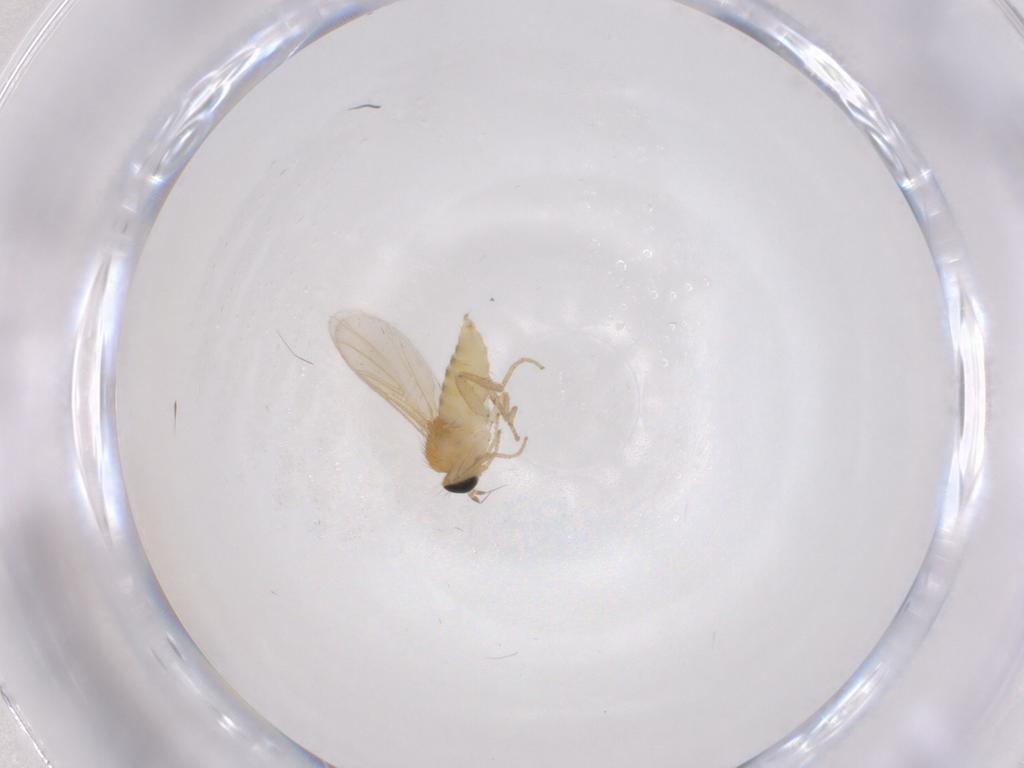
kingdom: Animalia
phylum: Arthropoda
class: Insecta
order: Diptera
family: Hybotidae
